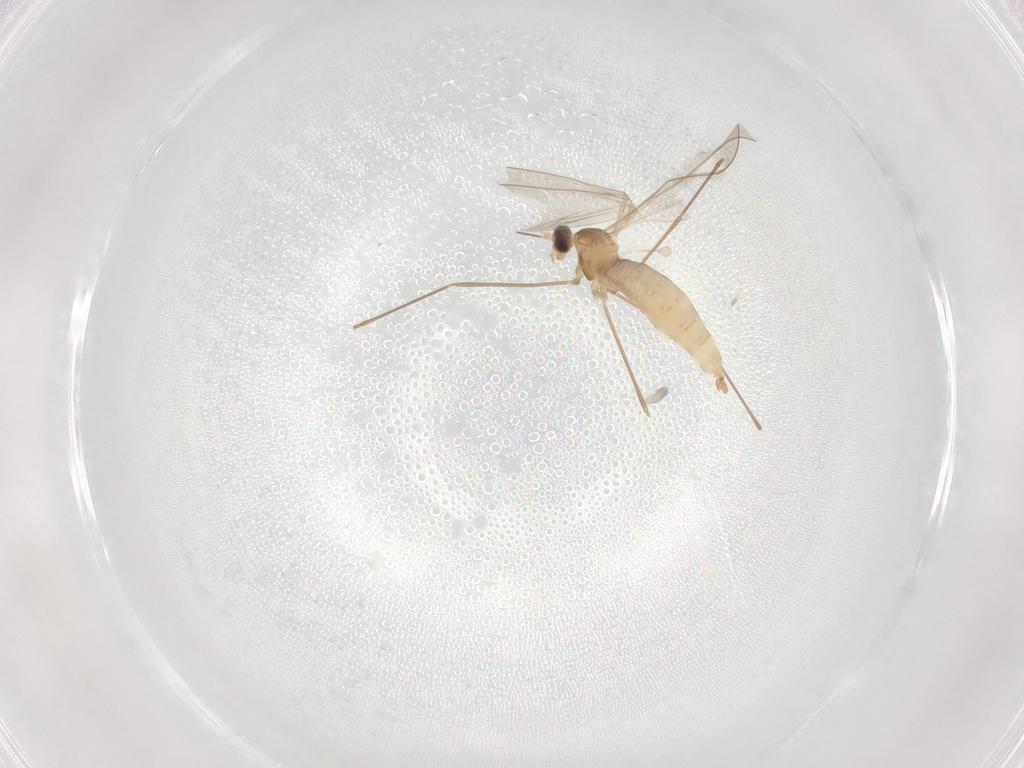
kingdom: Animalia
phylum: Arthropoda
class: Insecta
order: Diptera
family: Cecidomyiidae
